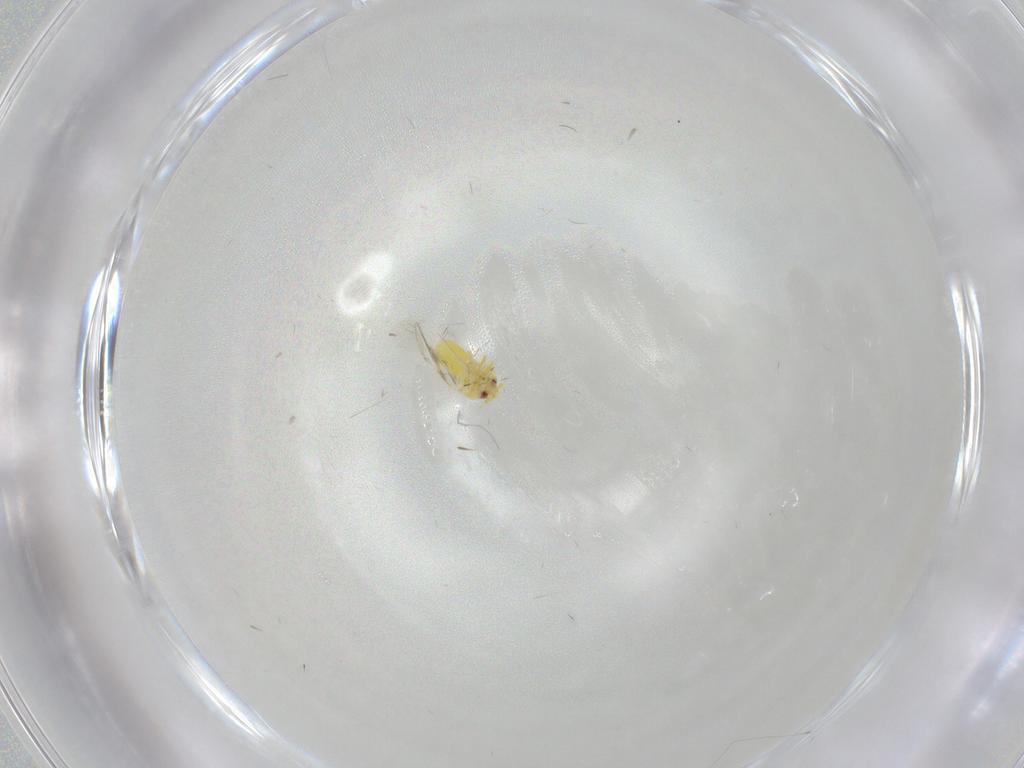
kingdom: Animalia
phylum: Arthropoda
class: Insecta
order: Hemiptera
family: Aleyrodidae
